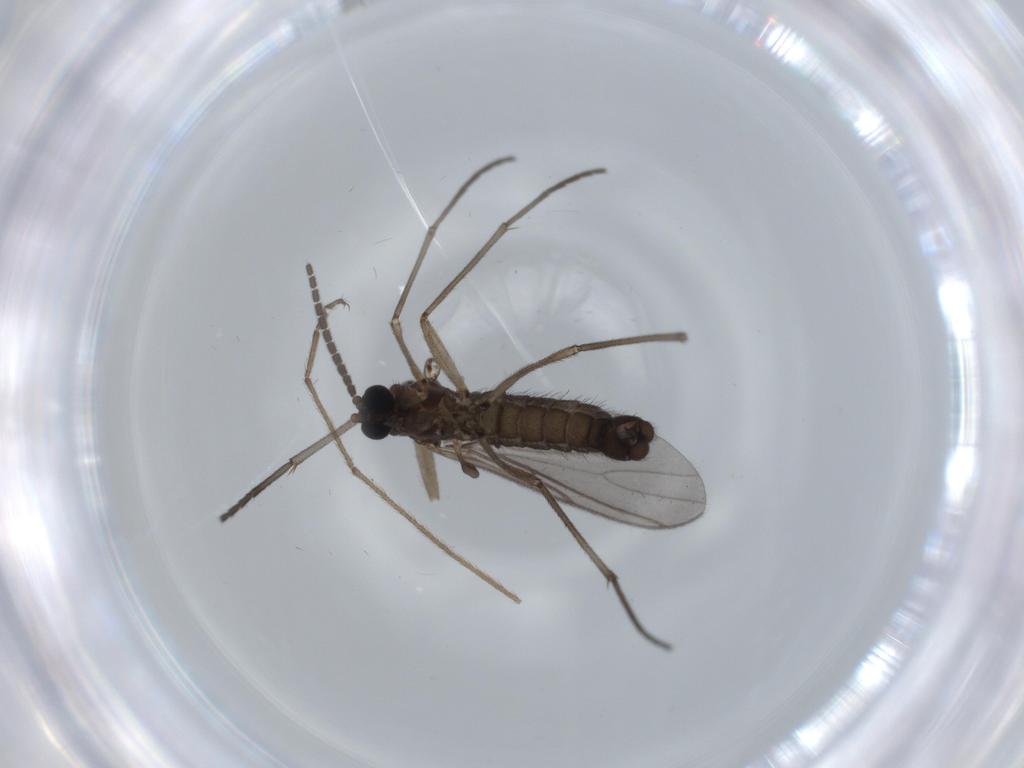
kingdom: Animalia
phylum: Arthropoda
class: Insecta
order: Diptera
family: Sciaridae
